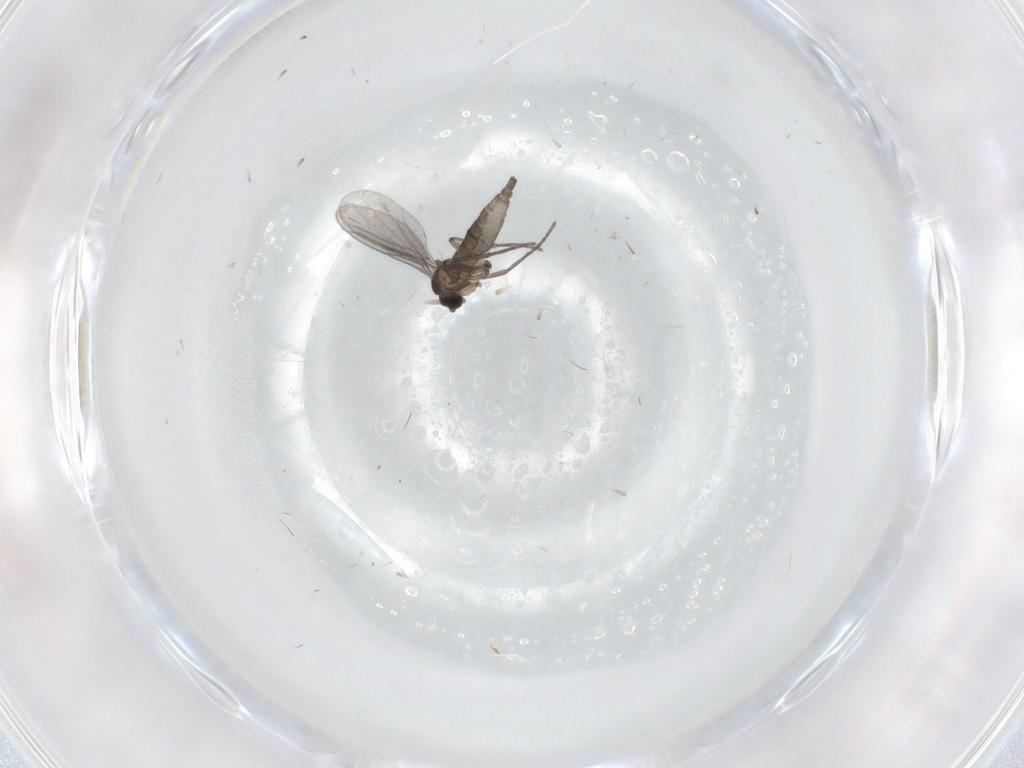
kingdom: Animalia
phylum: Arthropoda
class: Insecta
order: Diptera
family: Sciaridae
